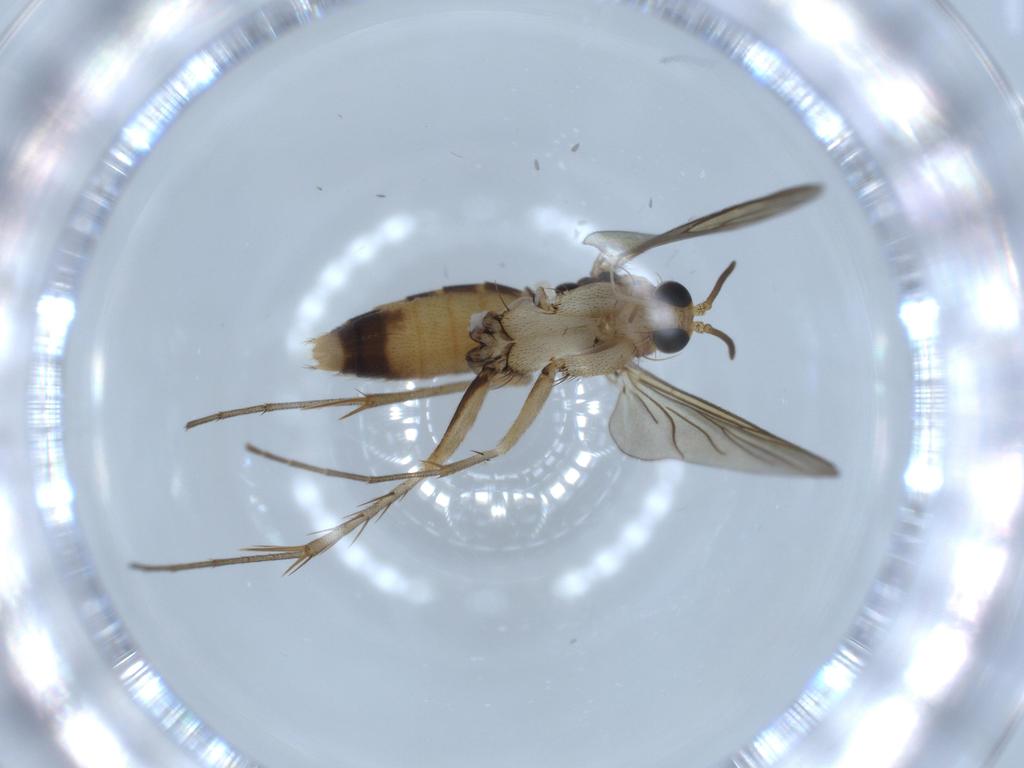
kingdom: Animalia
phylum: Arthropoda
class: Insecta
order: Diptera
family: Mycetophilidae
